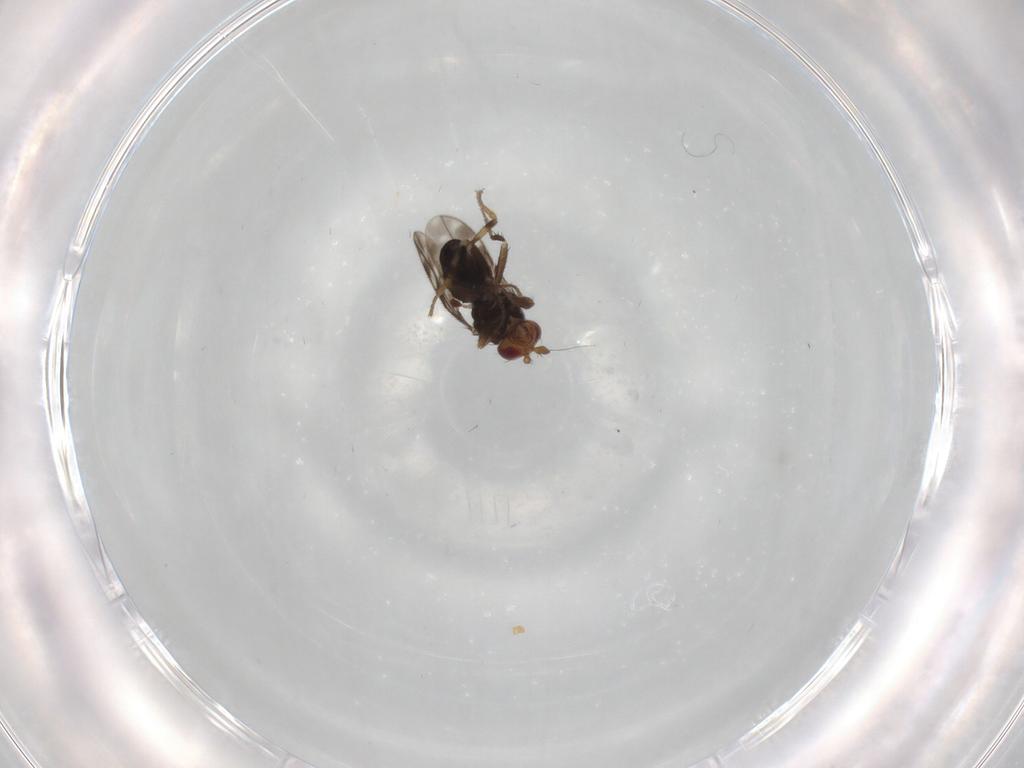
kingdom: Animalia
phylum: Arthropoda
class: Insecta
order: Diptera
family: Sphaeroceridae
